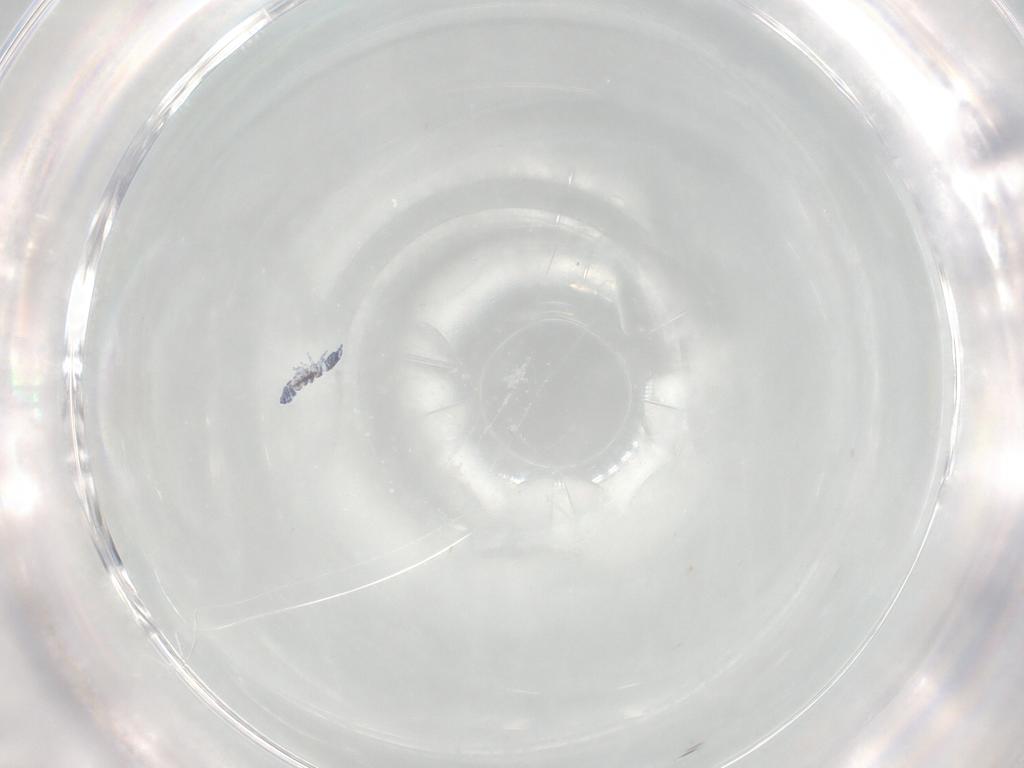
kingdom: Animalia
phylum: Arthropoda
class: Collembola
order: Poduromorpha
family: Hypogastruridae
